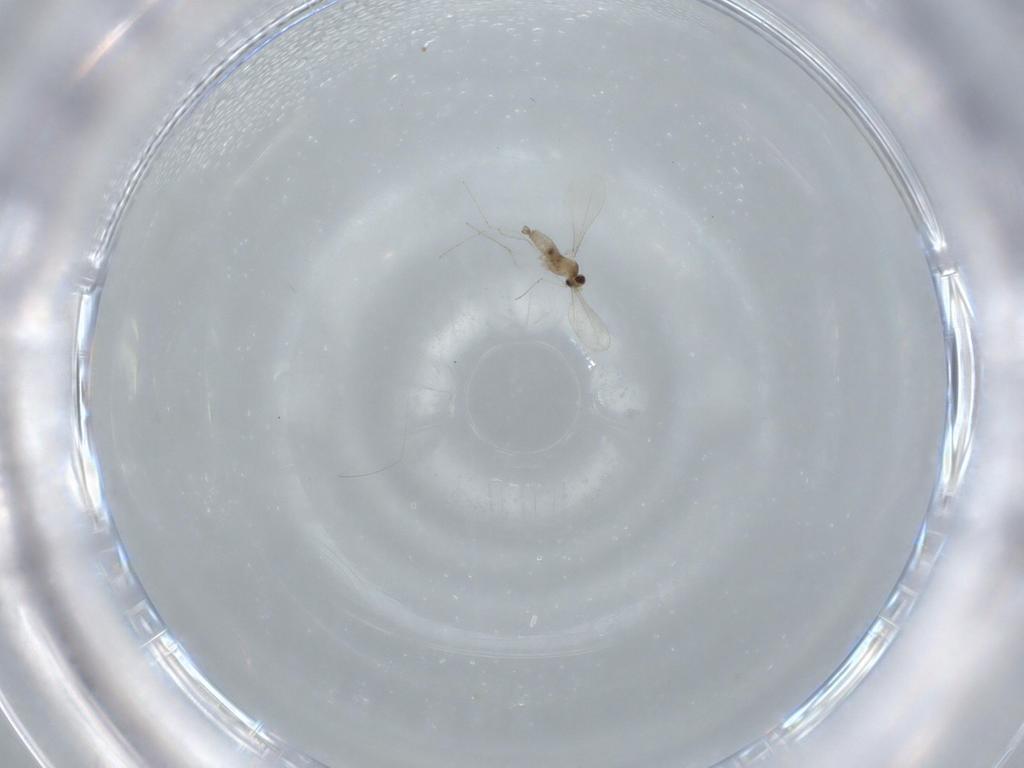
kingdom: Animalia
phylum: Arthropoda
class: Insecta
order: Diptera
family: Cecidomyiidae
